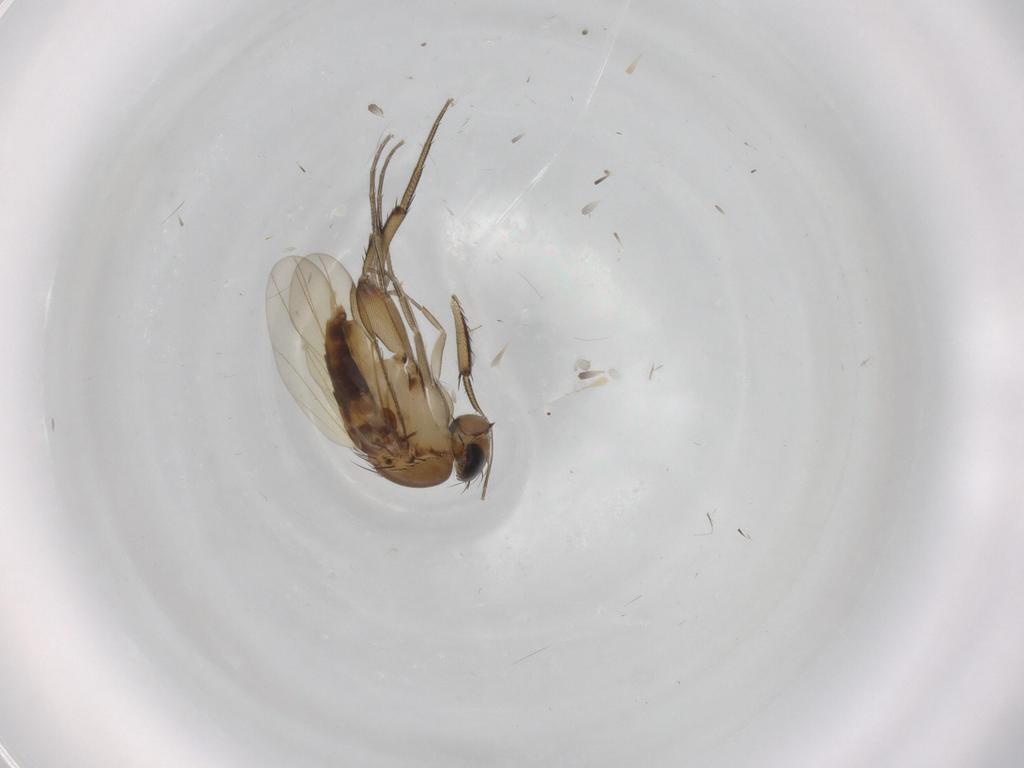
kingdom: Animalia
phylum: Arthropoda
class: Insecta
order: Diptera
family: Phoridae
